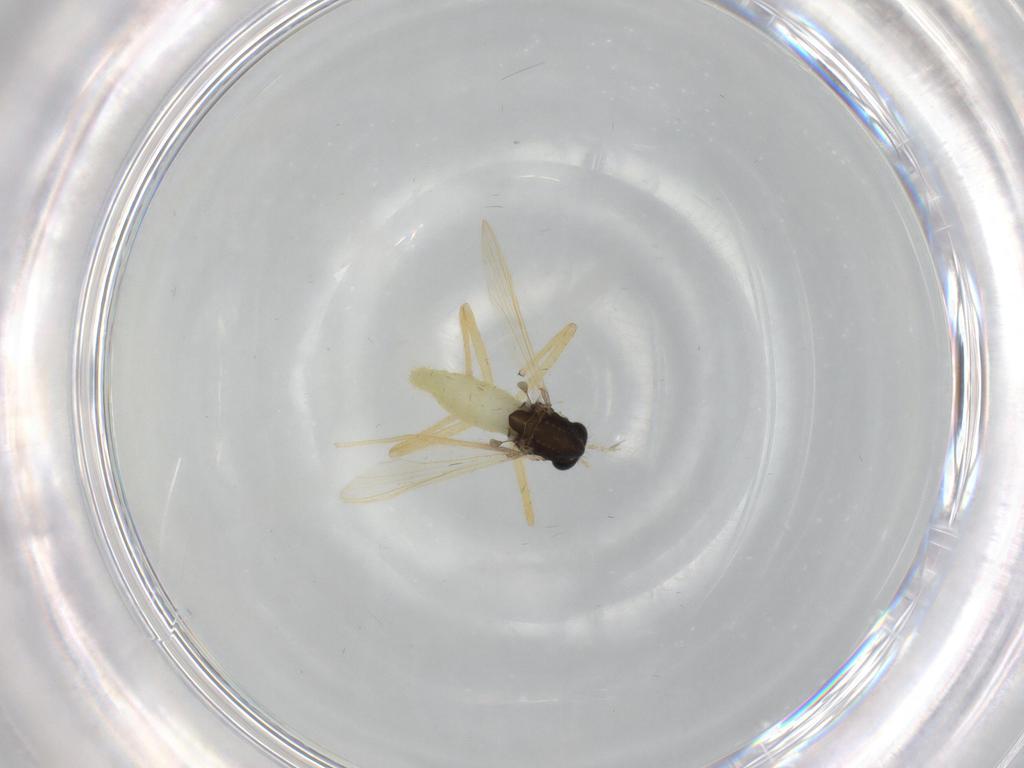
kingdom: Animalia
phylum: Arthropoda
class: Insecta
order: Diptera
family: Chironomidae
